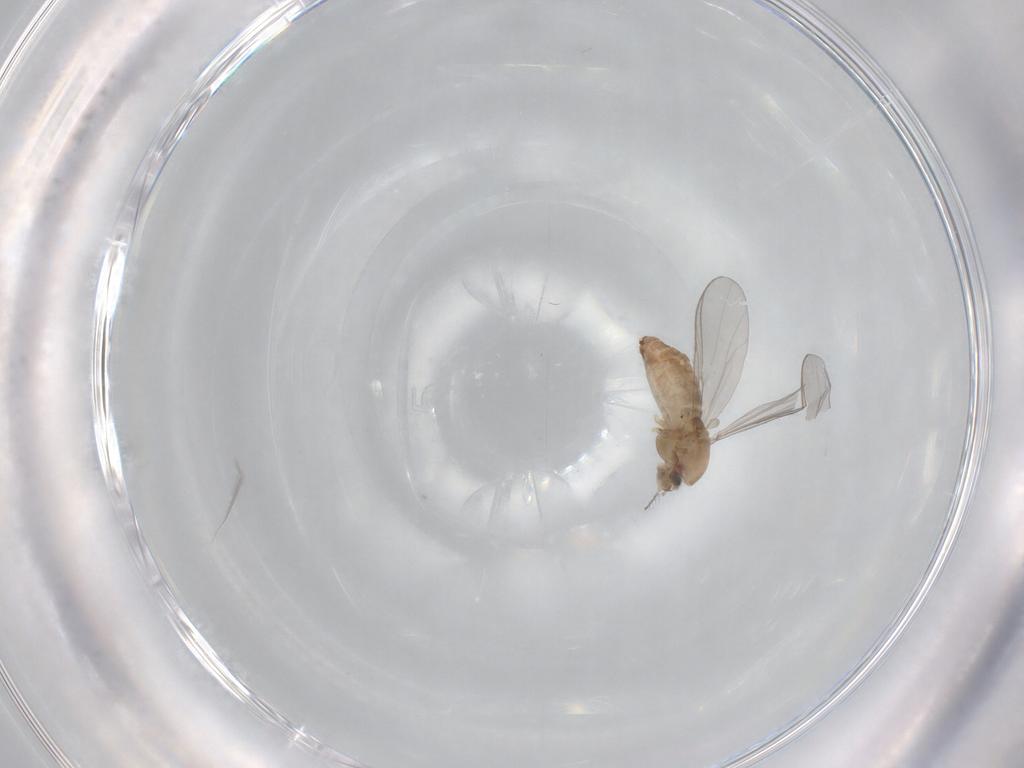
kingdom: Animalia
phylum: Arthropoda
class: Insecta
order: Diptera
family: Chironomidae
